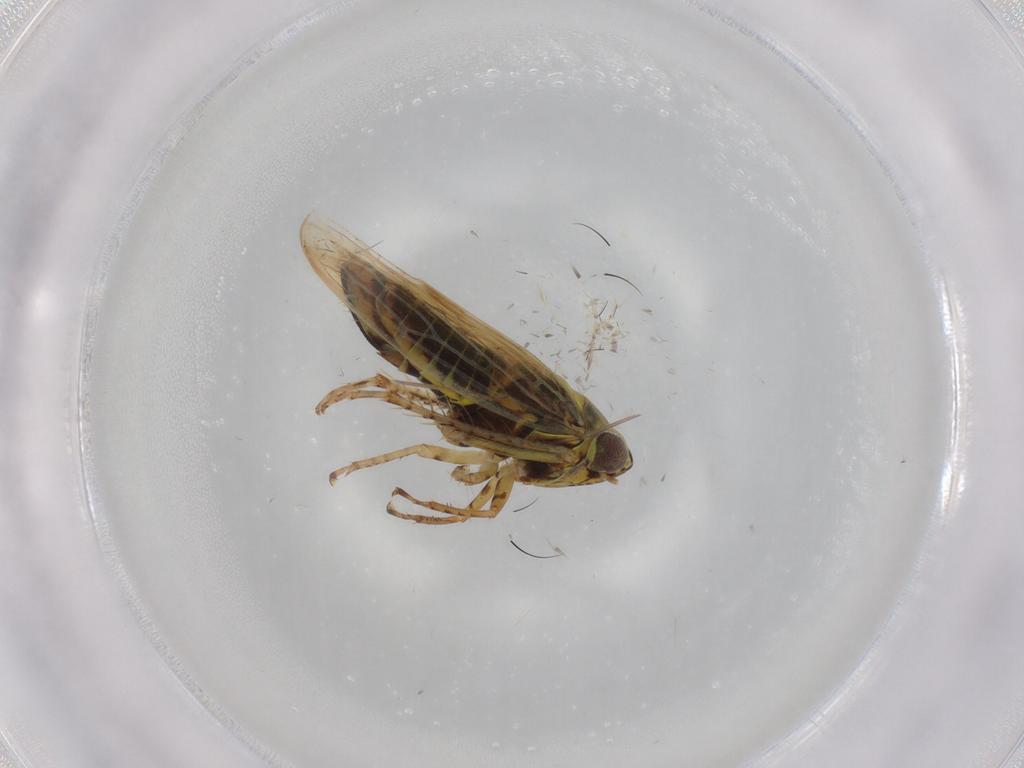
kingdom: Animalia
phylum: Arthropoda
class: Insecta
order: Hemiptera
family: Cicadellidae
